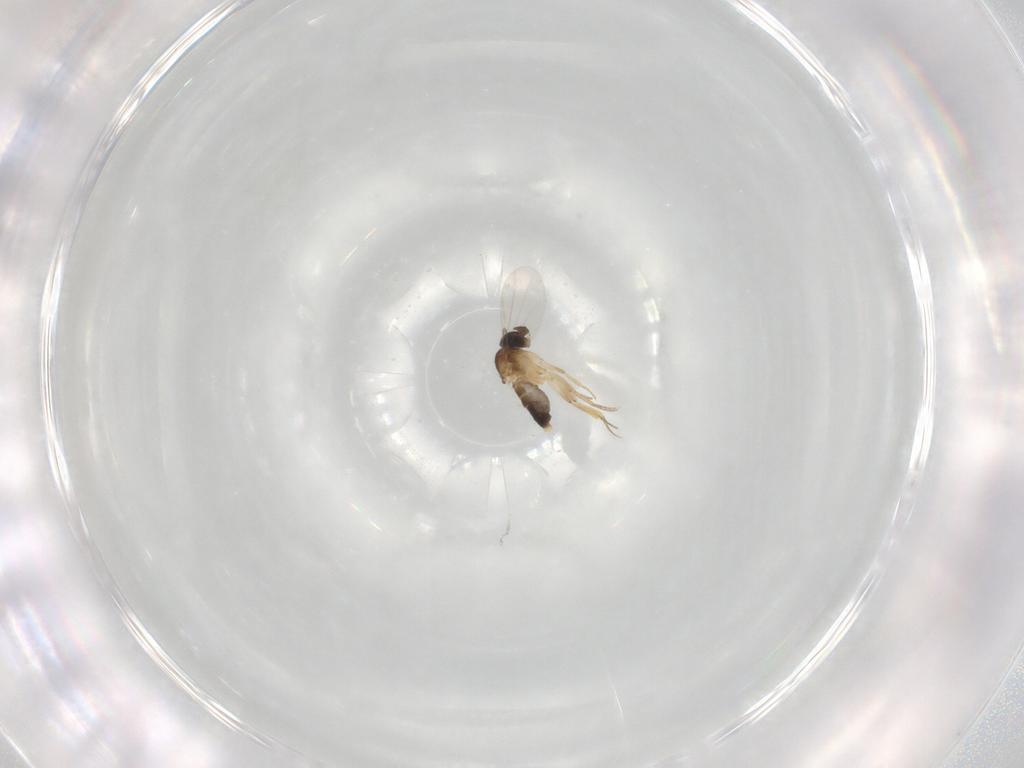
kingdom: Animalia
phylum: Arthropoda
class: Insecta
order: Diptera
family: Phoridae
